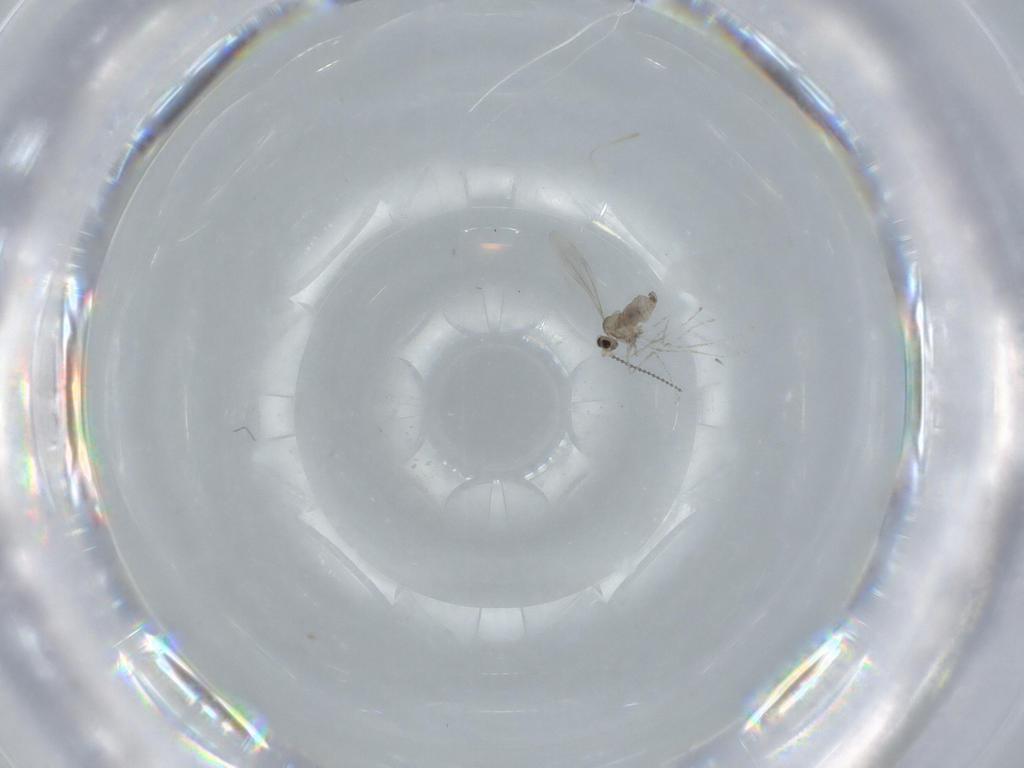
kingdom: Animalia
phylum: Arthropoda
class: Insecta
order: Diptera
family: Cecidomyiidae
